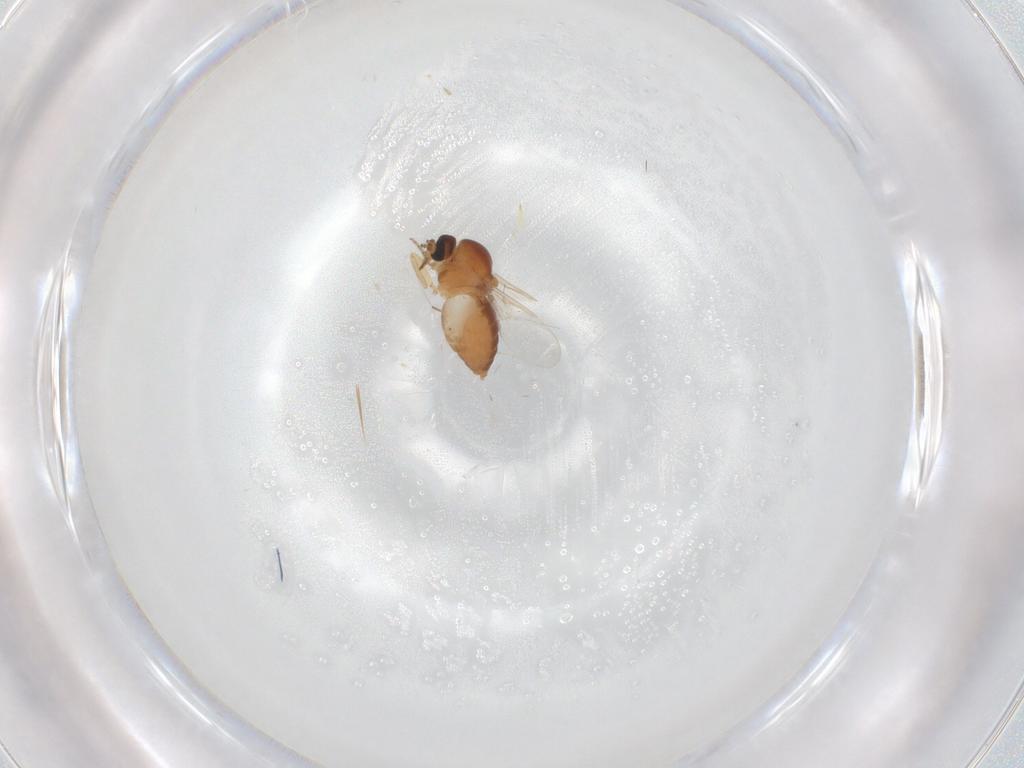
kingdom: Animalia
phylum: Arthropoda
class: Insecta
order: Diptera
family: Ceratopogonidae
